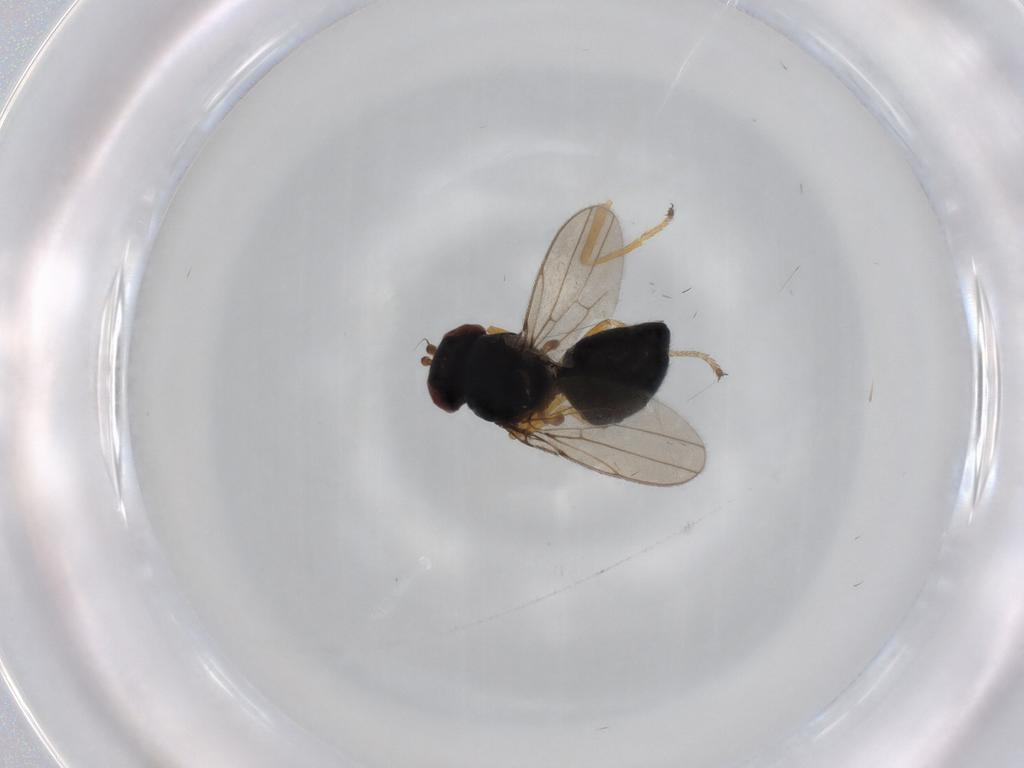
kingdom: Animalia
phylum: Arthropoda
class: Insecta
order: Diptera
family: Ephydridae
